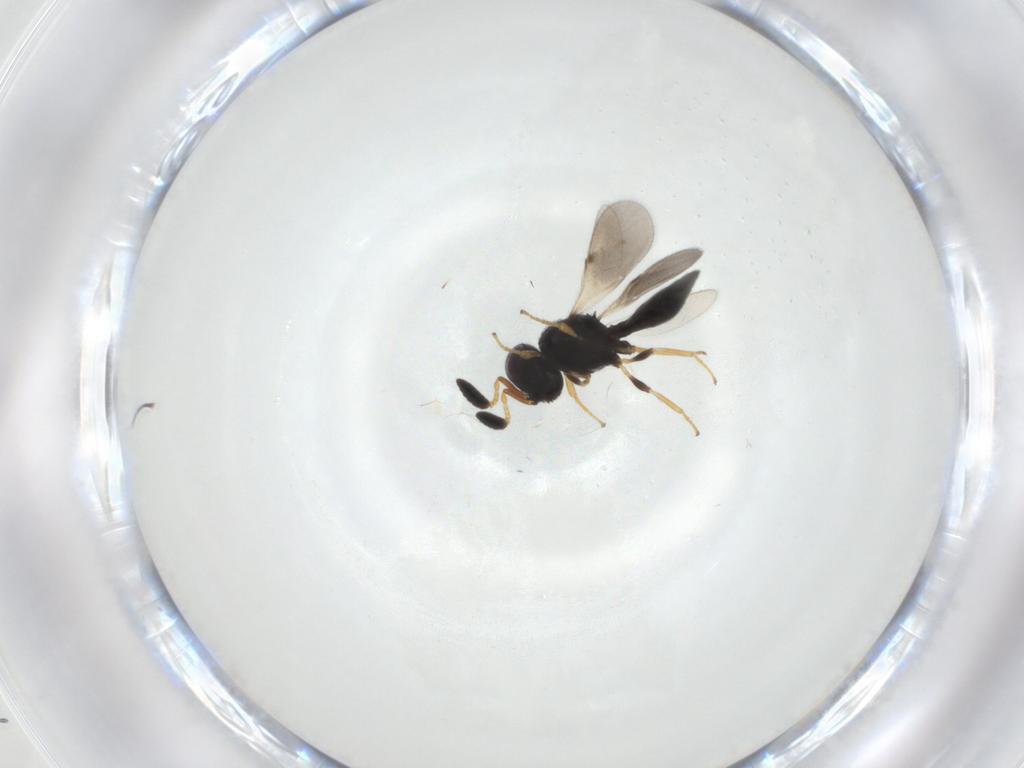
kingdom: Animalia
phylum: Arthropoda
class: Insecta
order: Hymenoptera
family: Scelionidae
